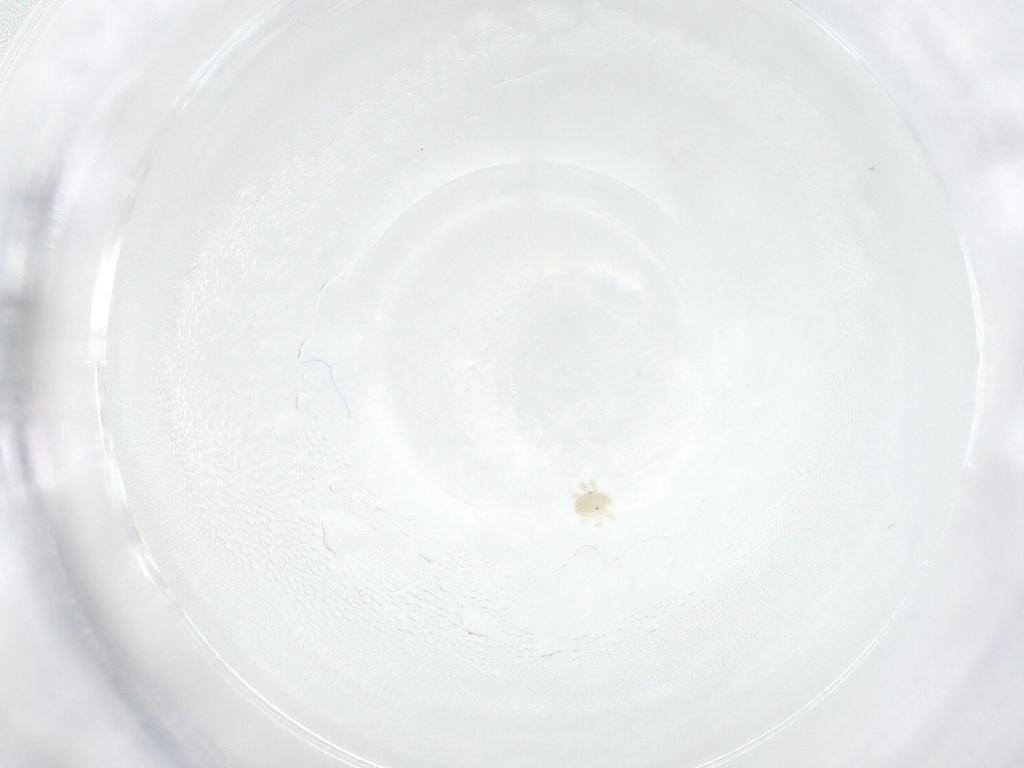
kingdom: Animalia
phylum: Arthropoda
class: Arachnida
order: Trombidiformes
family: Anystidae
